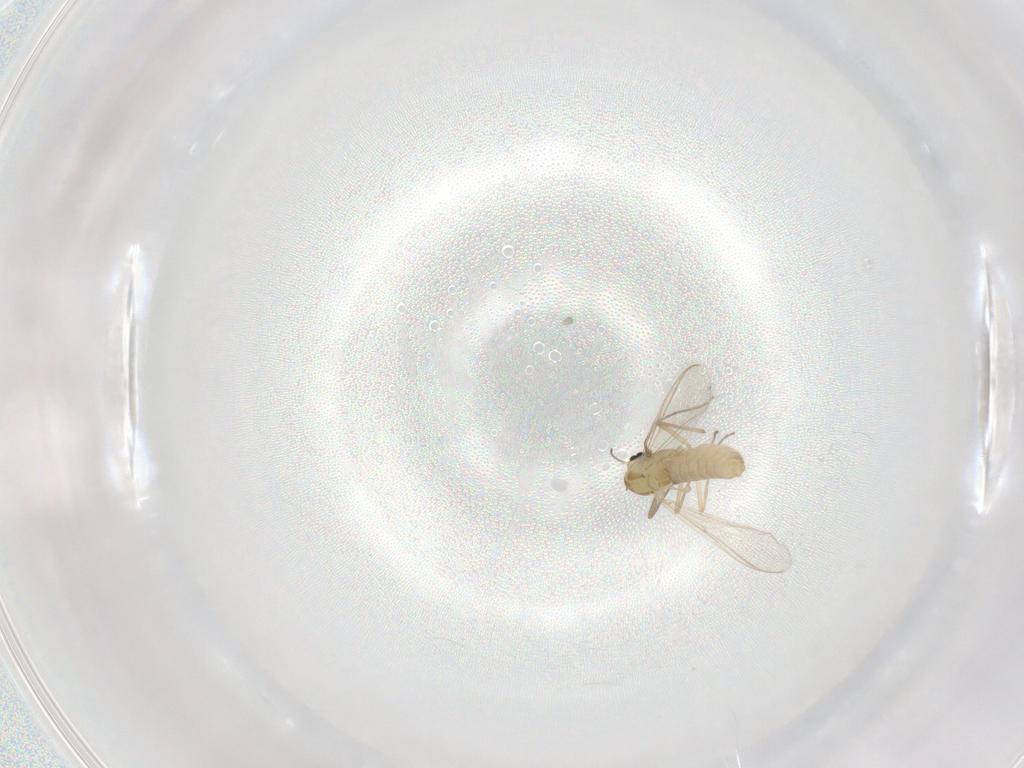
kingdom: Animalia
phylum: Arthropoda
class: Insecta
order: Diptera
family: Chironomidae
